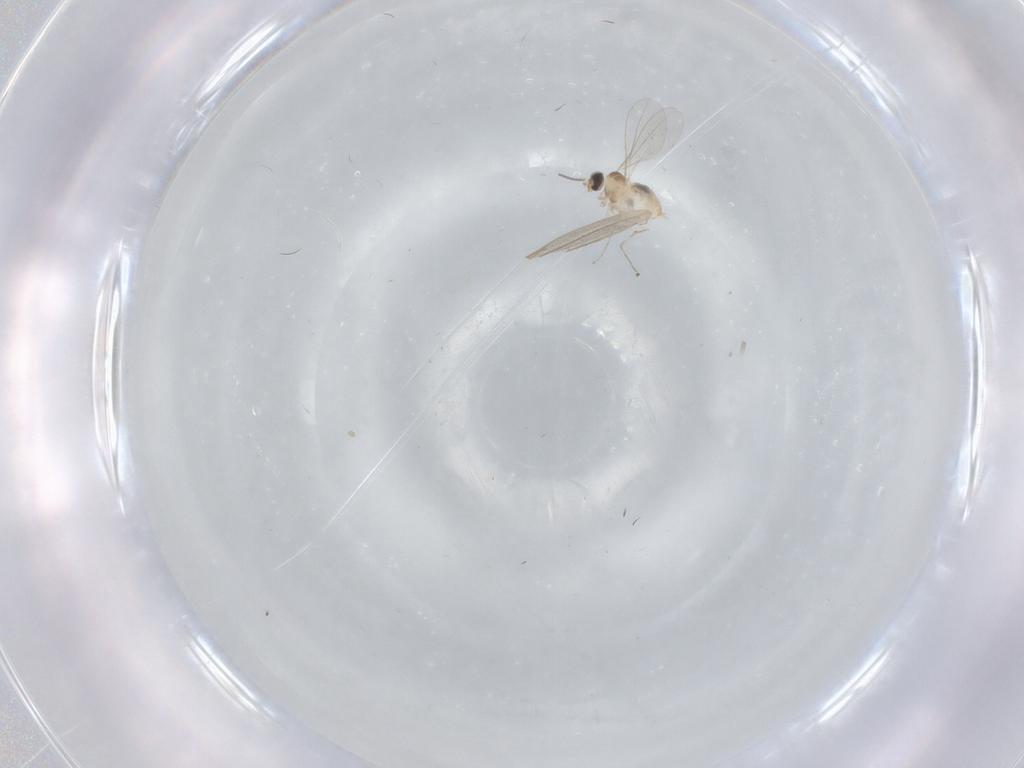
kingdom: Animalia
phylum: Arthropoda
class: Insecta
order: Diptera
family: Cecidomyiidae
